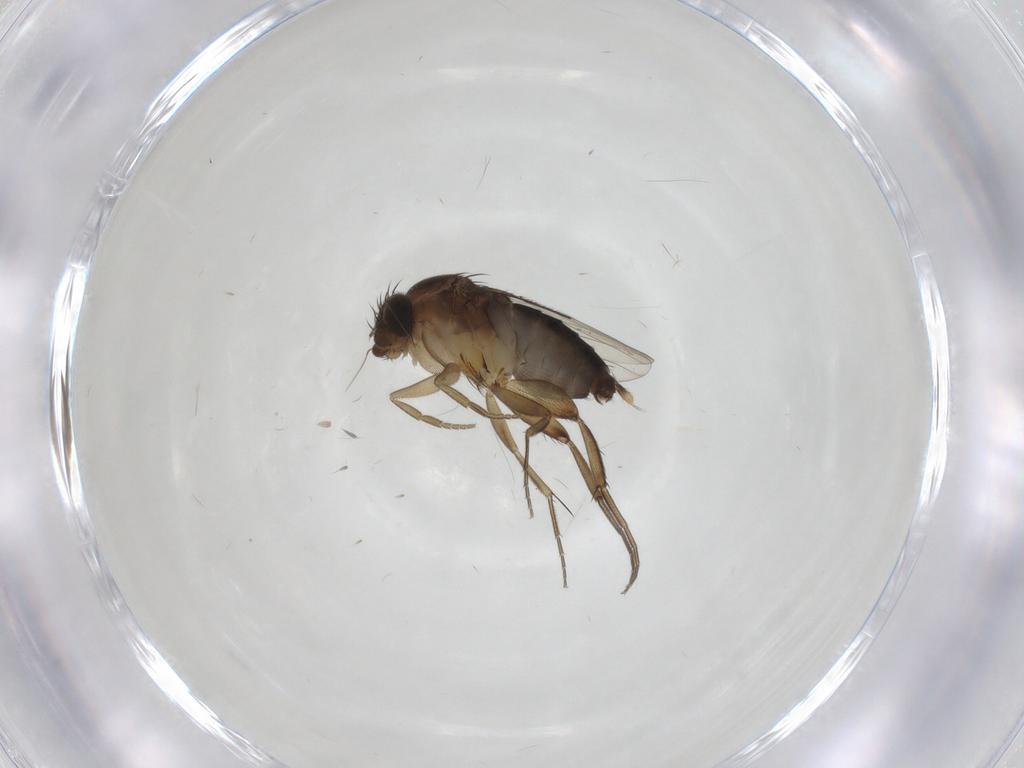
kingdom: Animalia
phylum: Arthropoda
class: Insecta
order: Diptera
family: Phoridae
